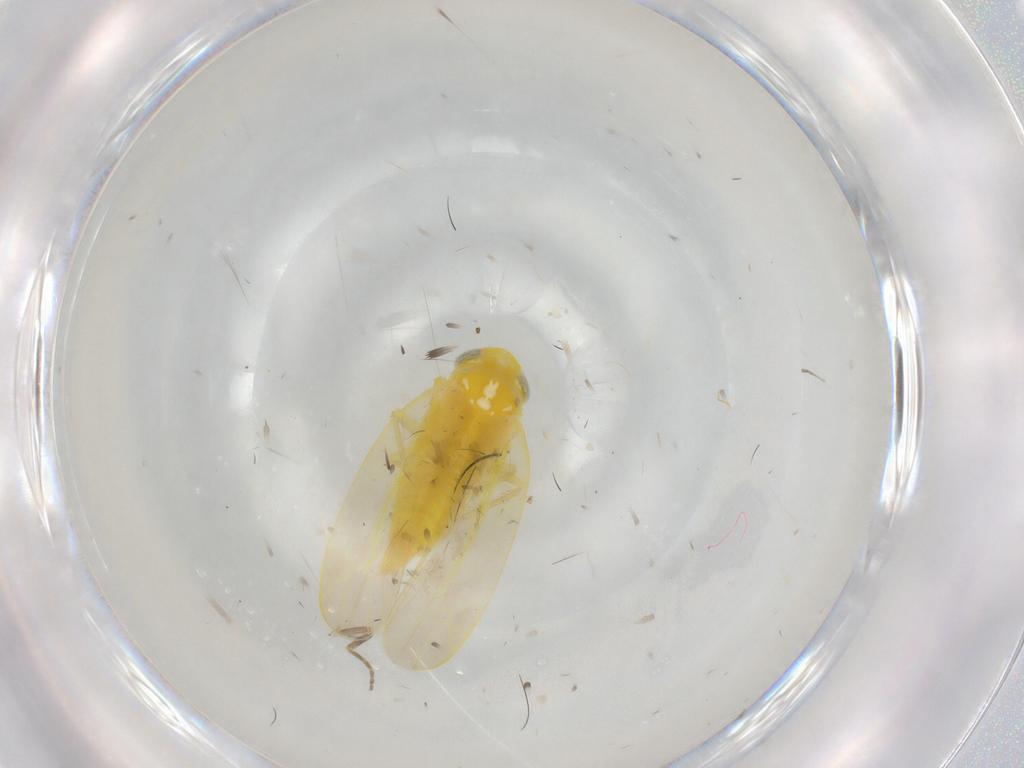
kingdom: Animalia
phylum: Arthropoda
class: Insecta
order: Hemiptera
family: Cicadellidae
